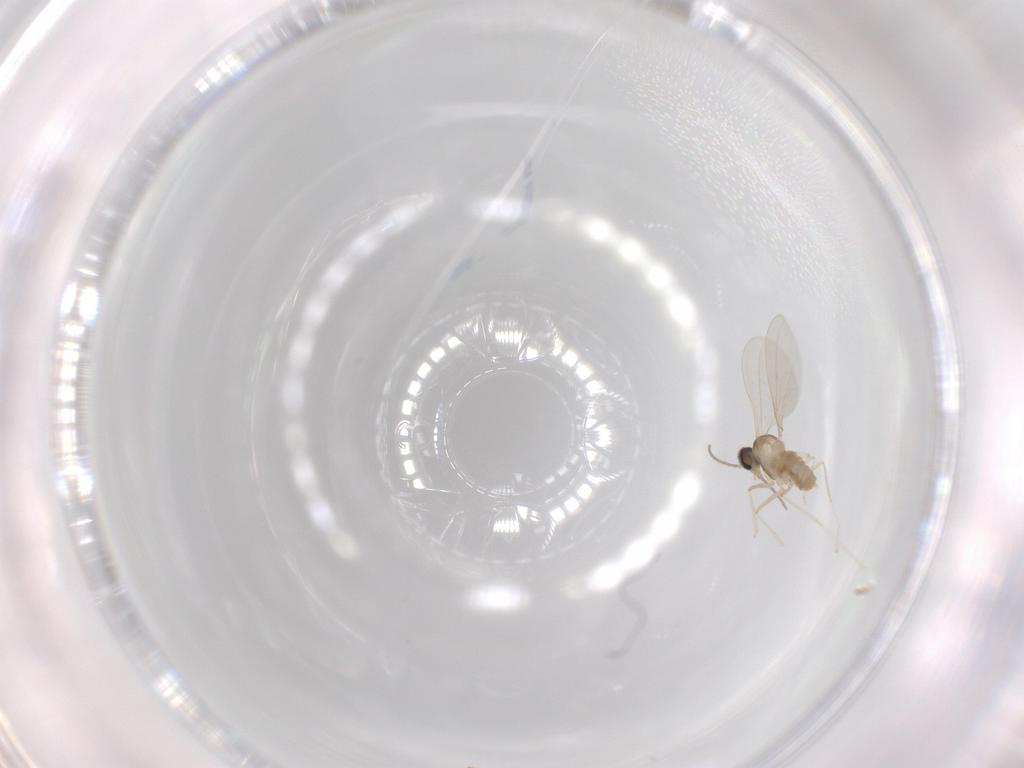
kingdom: Animalia
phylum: Arthropoda
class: Insecta
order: Diptera
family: Cecidomyiidae
